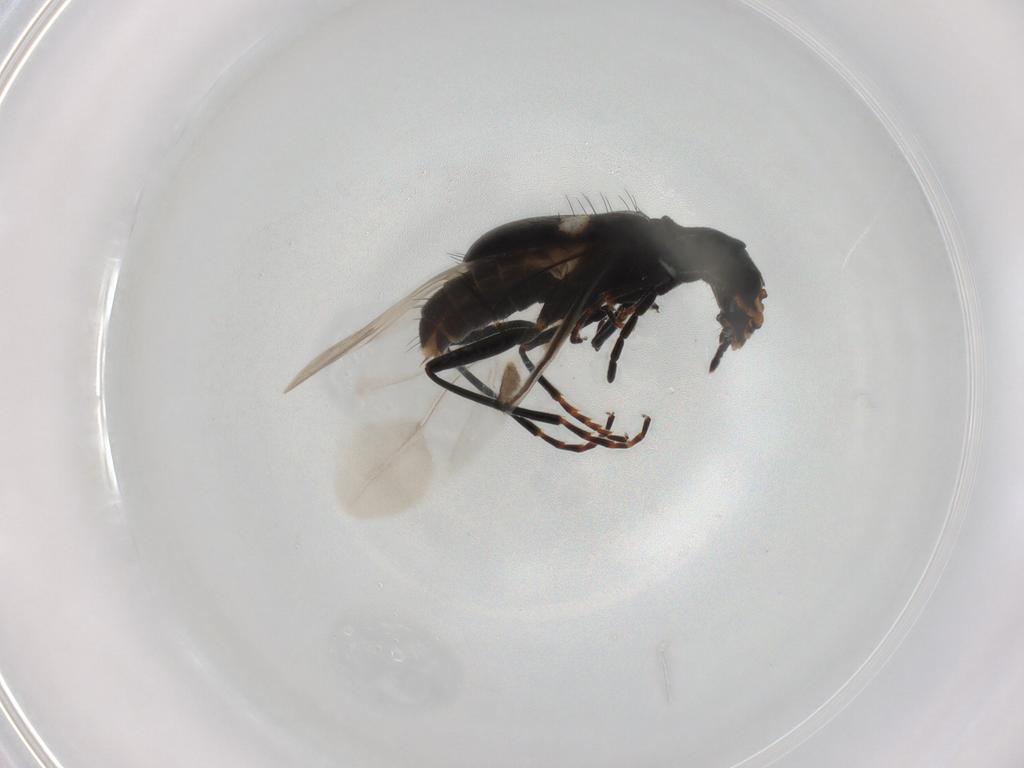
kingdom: Animalia
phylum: Arthropoda
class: Insecta
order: Coleoptera
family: Melyridae
